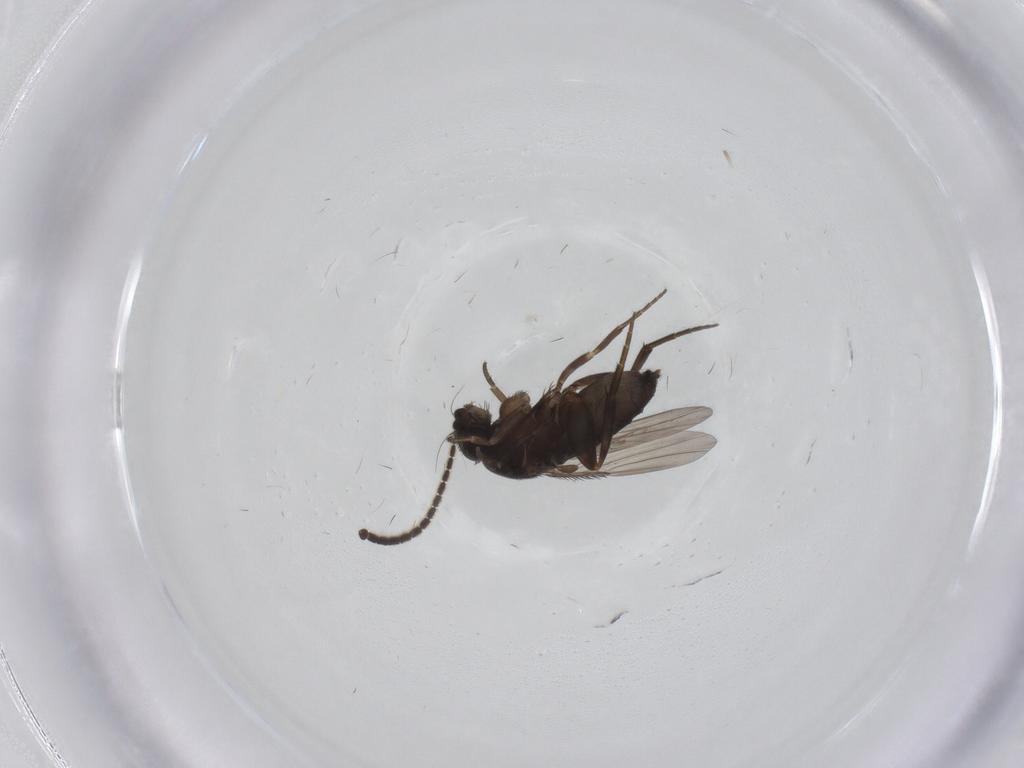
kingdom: Animalia
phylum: Arthropoda
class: Insecta
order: Diptera
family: Phoridae
